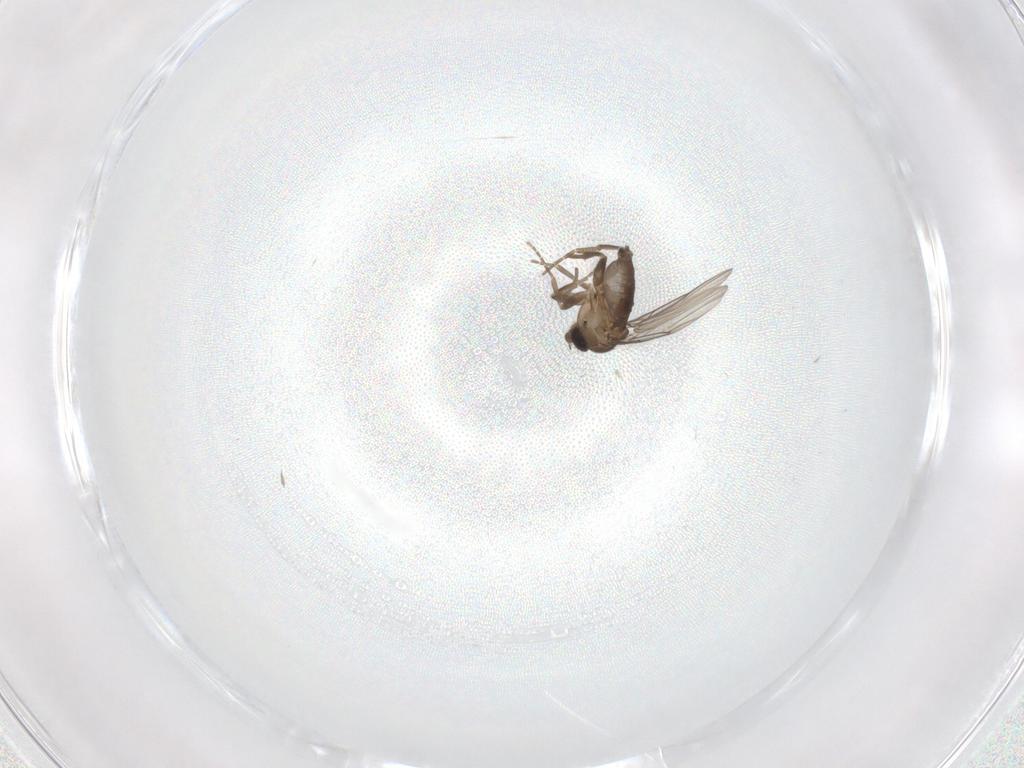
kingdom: Animalia
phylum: Arthropoda
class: Insecta
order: Diptera
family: Phoridae
